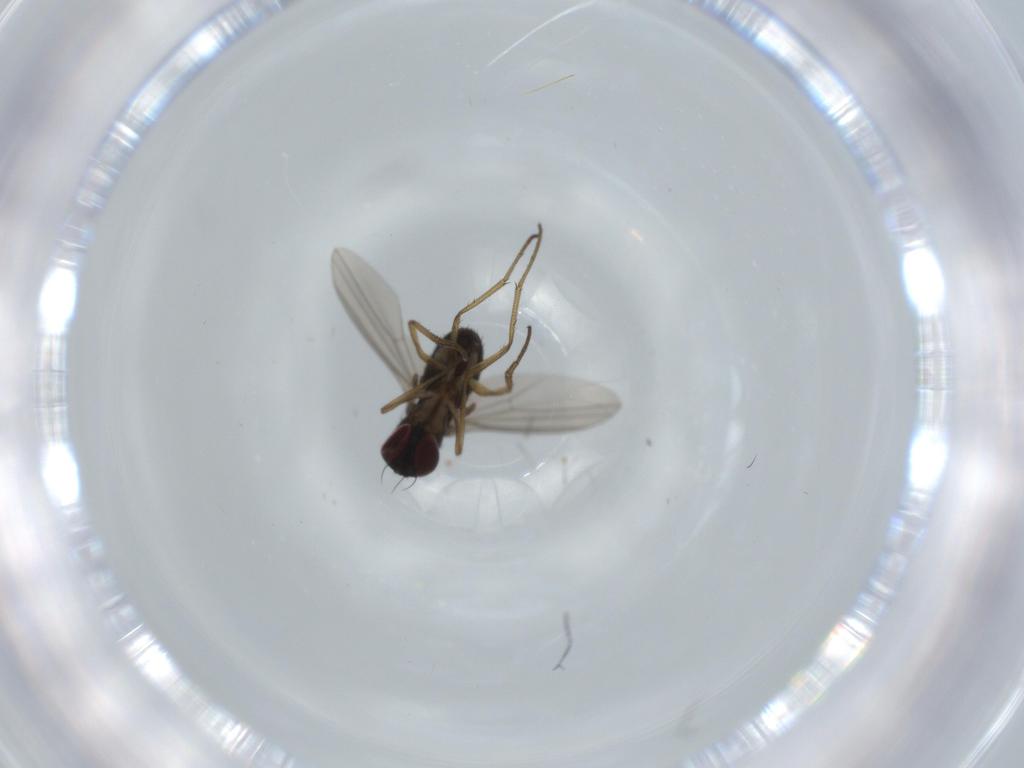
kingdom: Animalia
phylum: Arthropoda
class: Insecta
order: Diptera
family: Dolichopodidae
